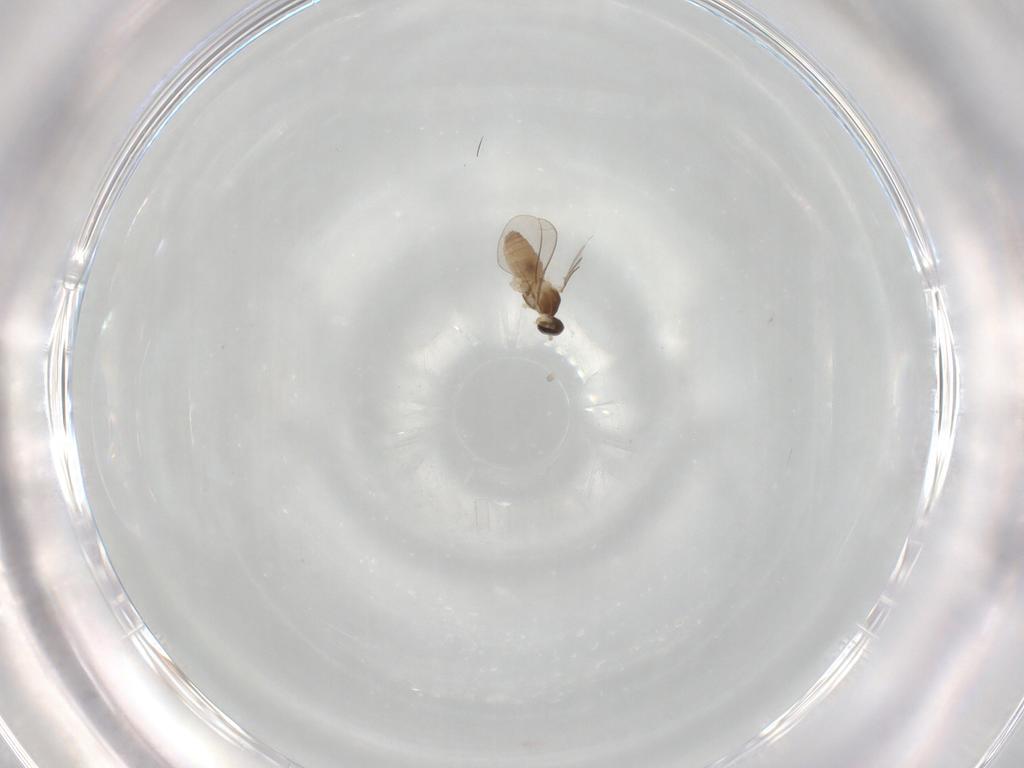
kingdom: Animalia
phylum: Arthropoda
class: Insecta
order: Diptera
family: Cecidomyiidae
